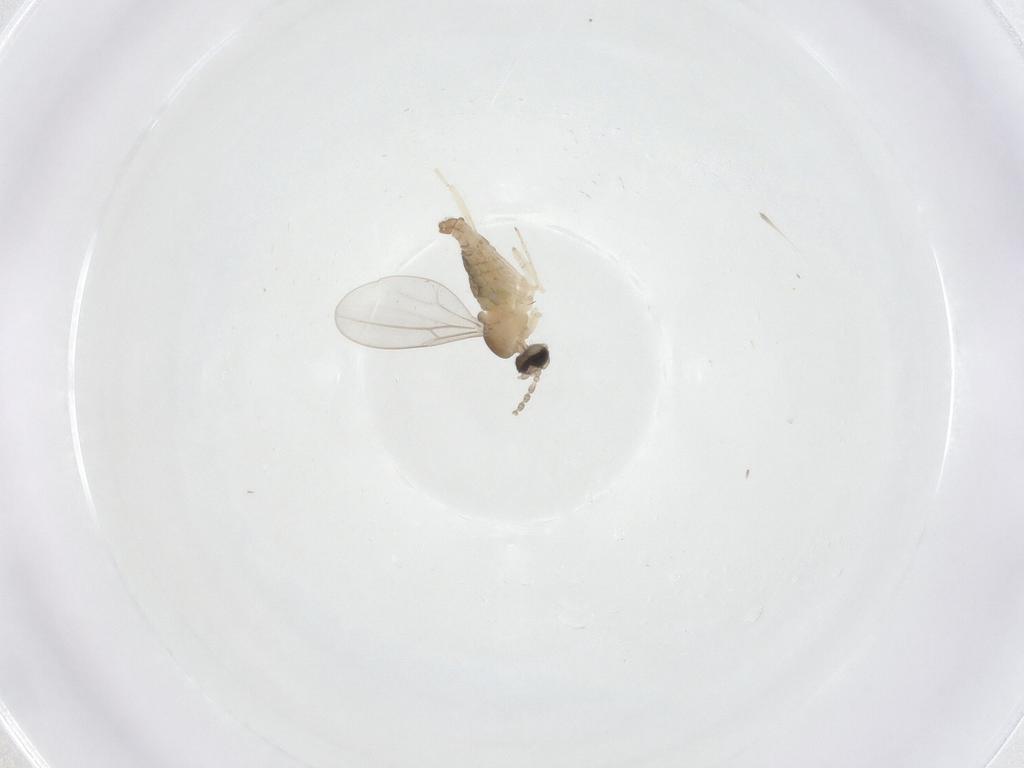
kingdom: Animalia
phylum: Arthropoda
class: Insecta
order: Diptera
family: Cecidomyiidae
